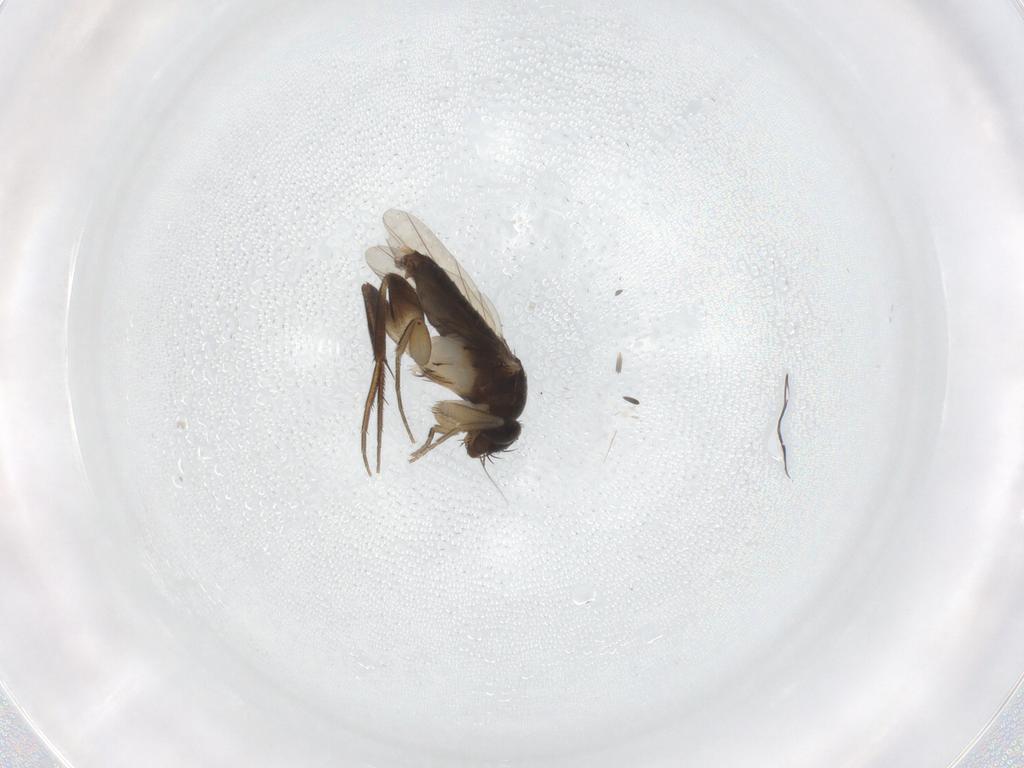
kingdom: Animalia
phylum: Arthropoda
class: Insecta
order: Diptera
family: Phoridae
